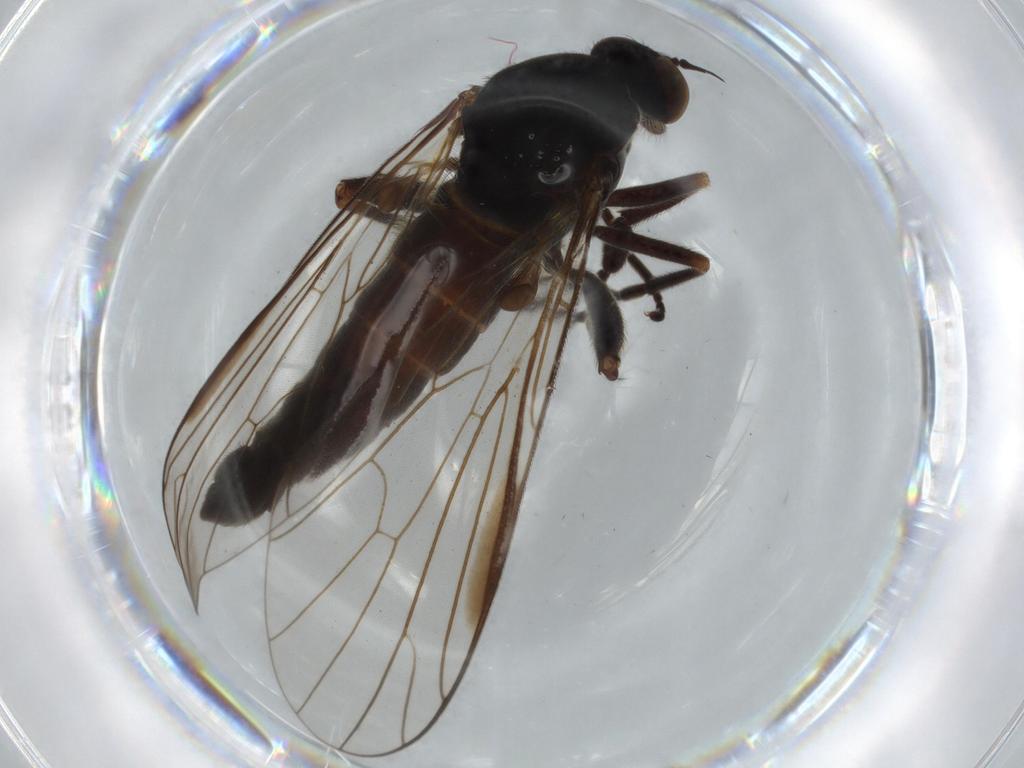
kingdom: Animalia
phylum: Arthropoda
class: Insecta
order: Diptera
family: Empididae
